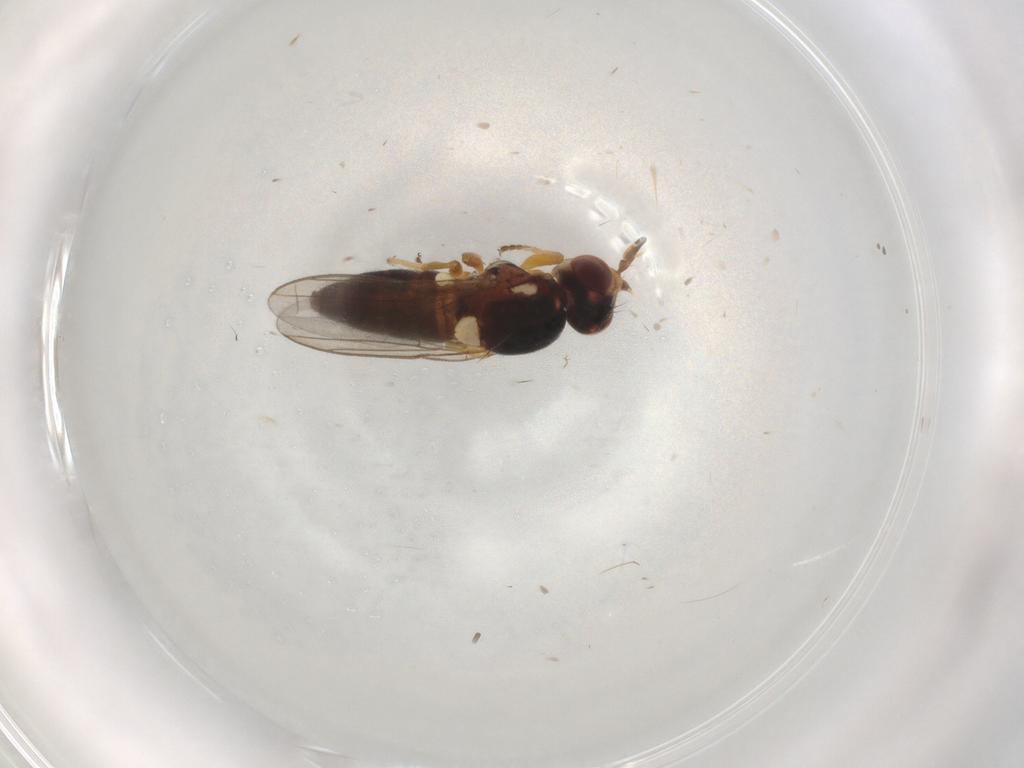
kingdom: Animalia
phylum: Arthropoda
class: Insecta
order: Diptera
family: Chloropidae
